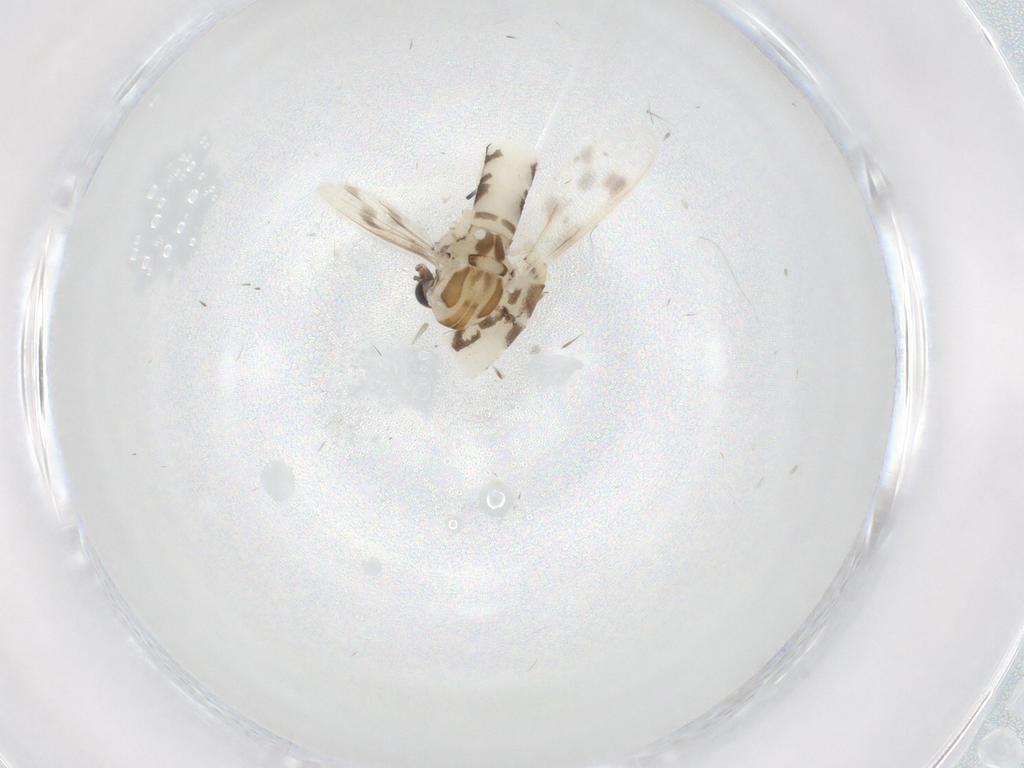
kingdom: Animalia
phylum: Arthropoda
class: Insecta
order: Diptera
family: Corethrellidae
